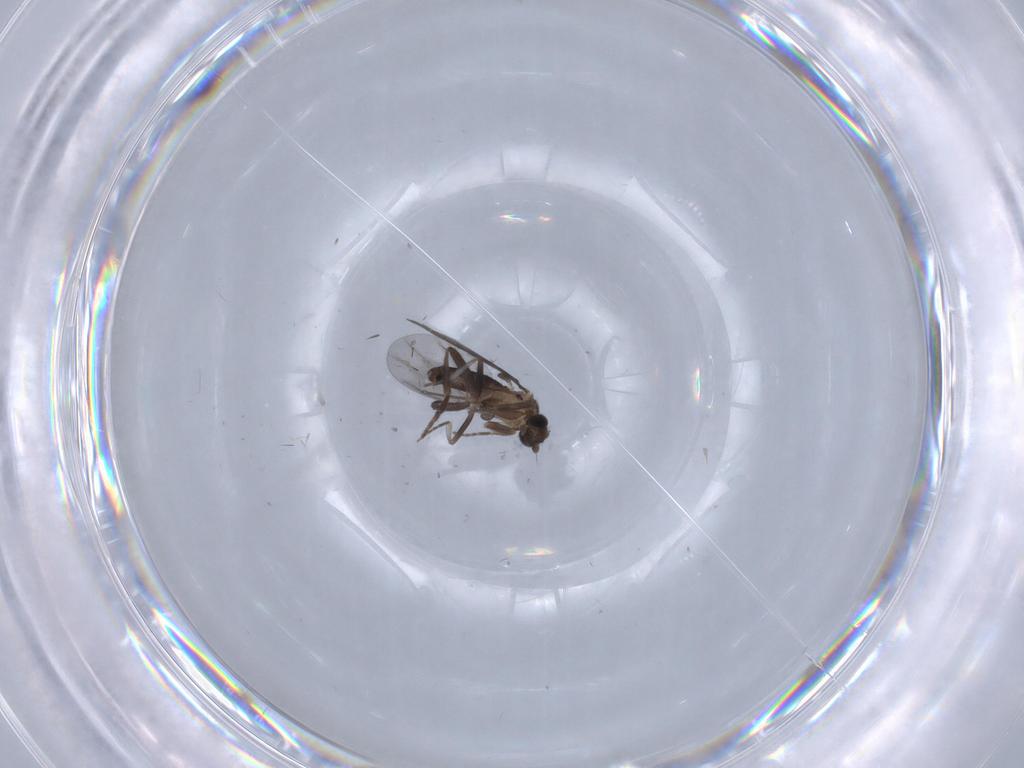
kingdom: Animalia
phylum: Arthropoda
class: Insecta
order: Diptera
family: Phoridae
